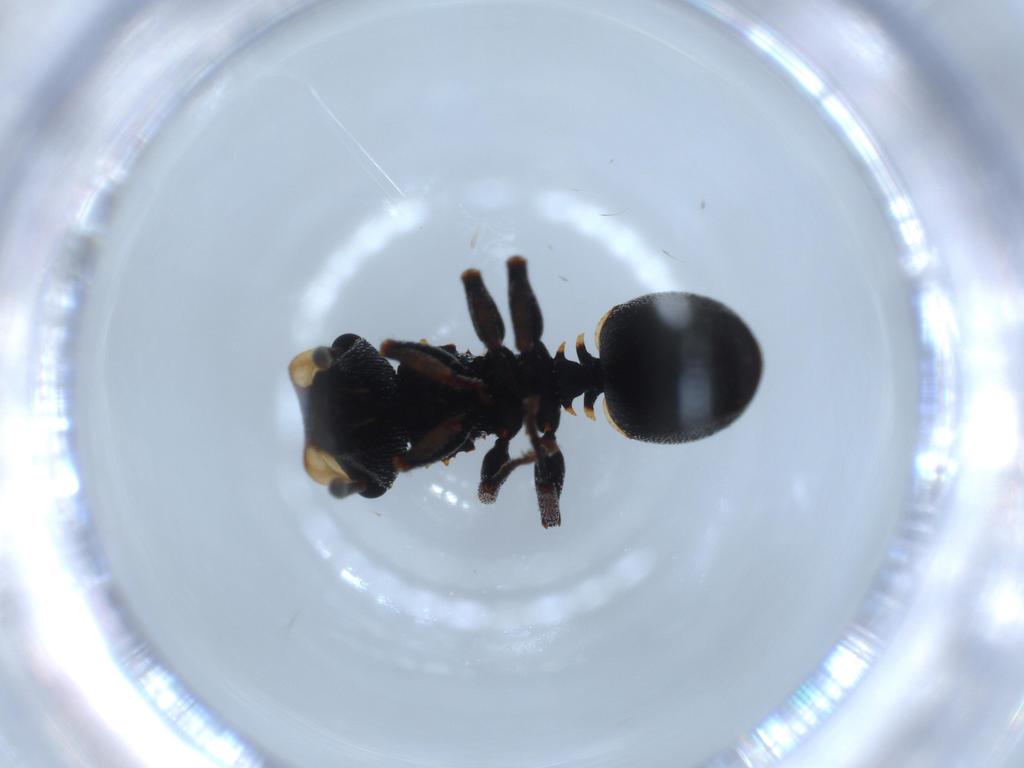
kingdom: Animalia
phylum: Arthropoda
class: Insecta
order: Hymenoptera
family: Formicidae
